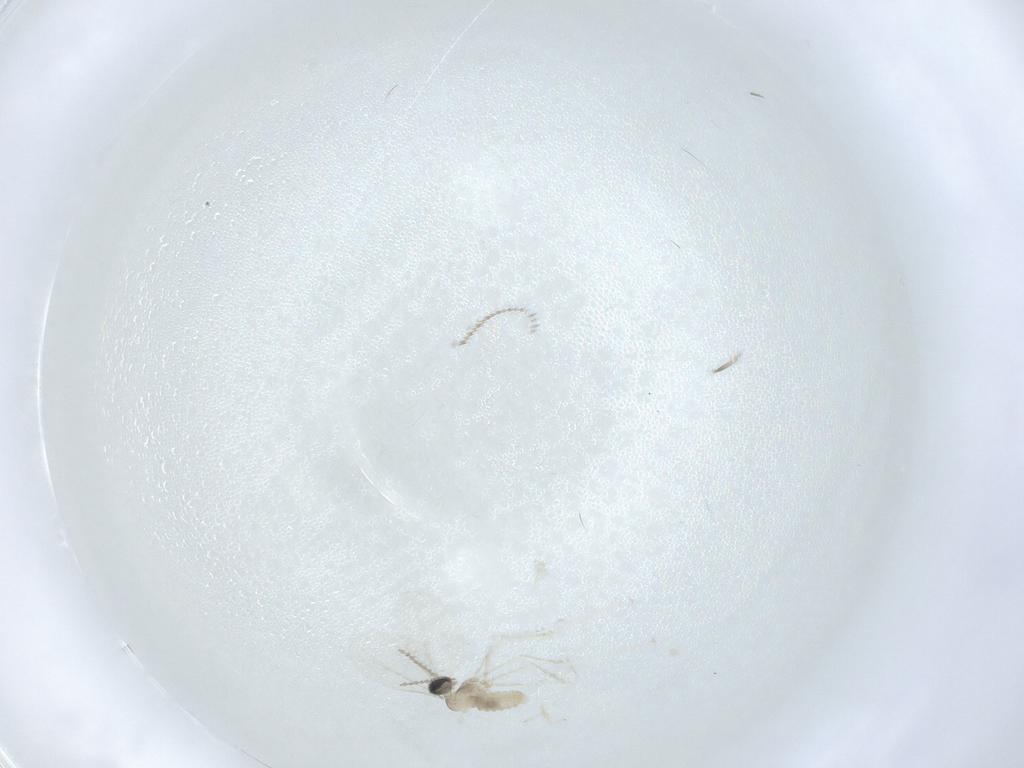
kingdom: Animalia
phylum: Arthropoda
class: Insecta
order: Diptera
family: Cecidomyiidae
